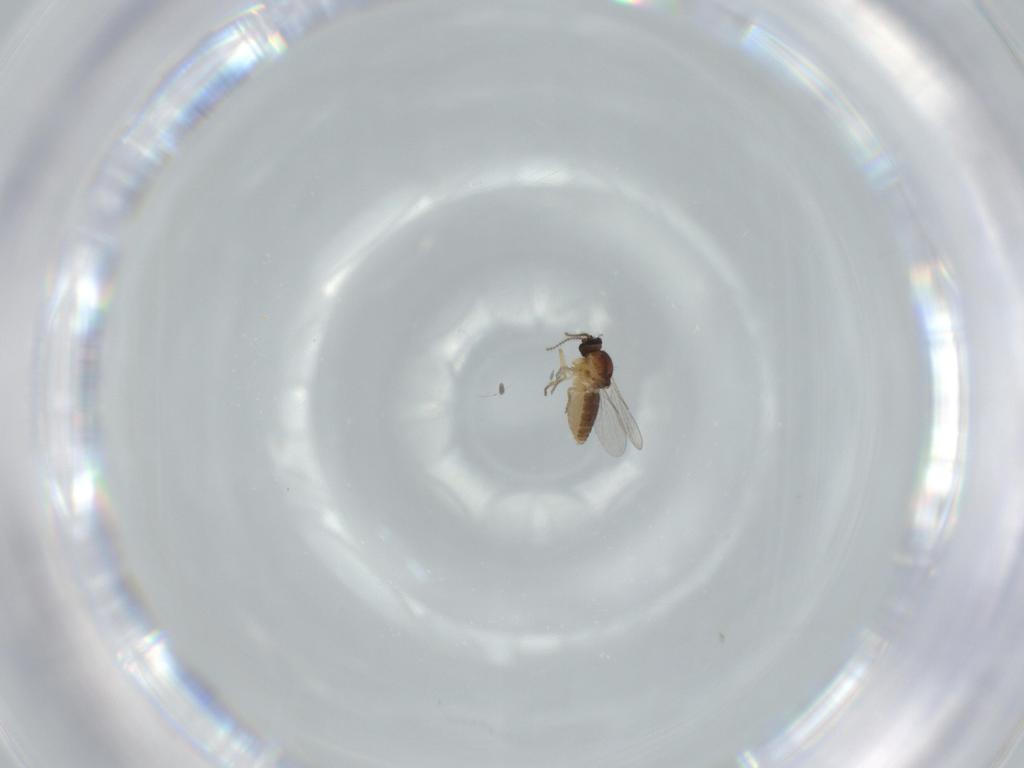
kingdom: Animalia
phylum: Arthropoda
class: Insecta
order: Diptera
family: Ceratopogonidae
